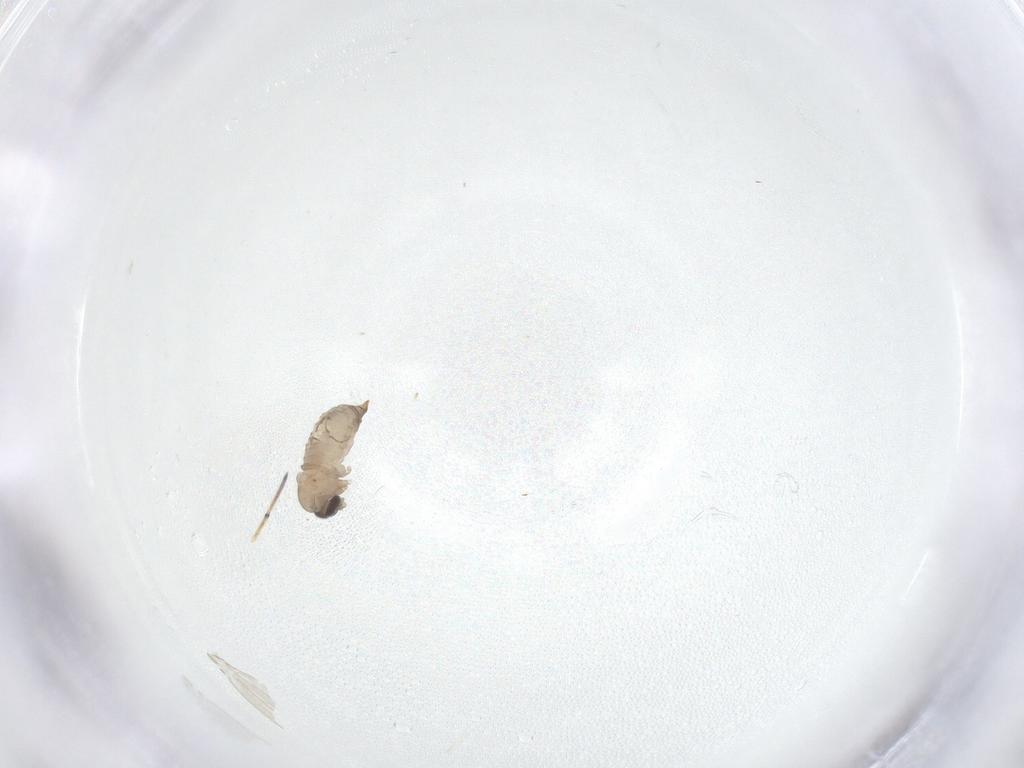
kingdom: Animalia
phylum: Arthropoda
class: Insecta
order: Diptera
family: Psychodidae
